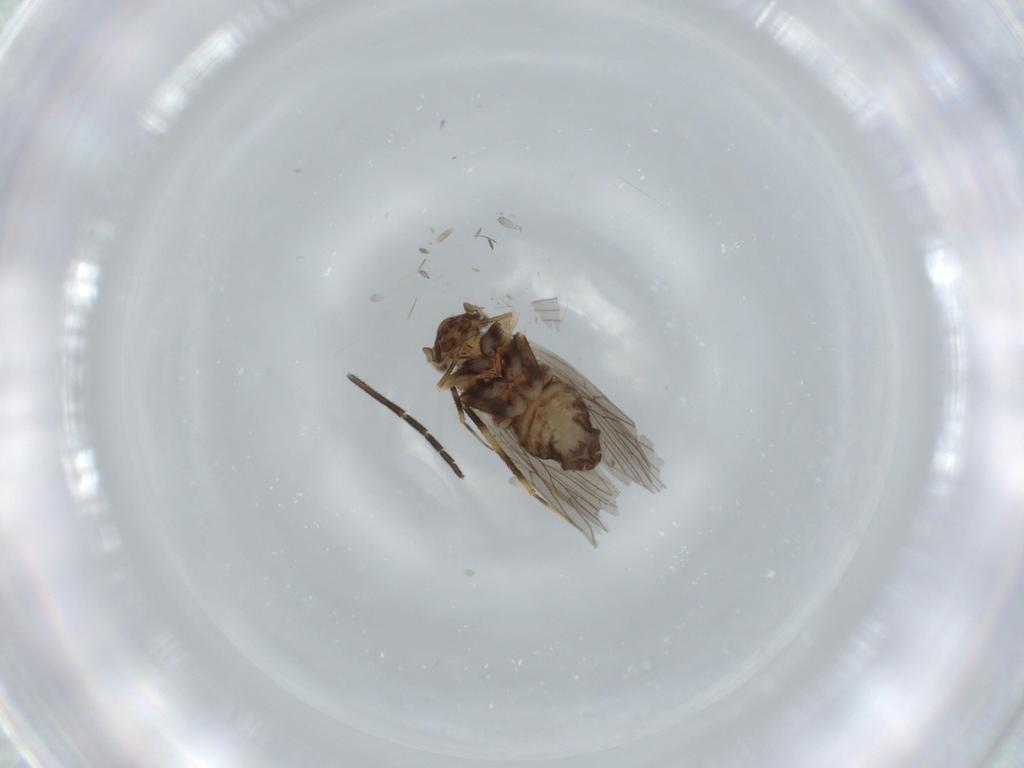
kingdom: Animalia
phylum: Arthropoda
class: Insecta
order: Psocodea
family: Lepidopsocidae
